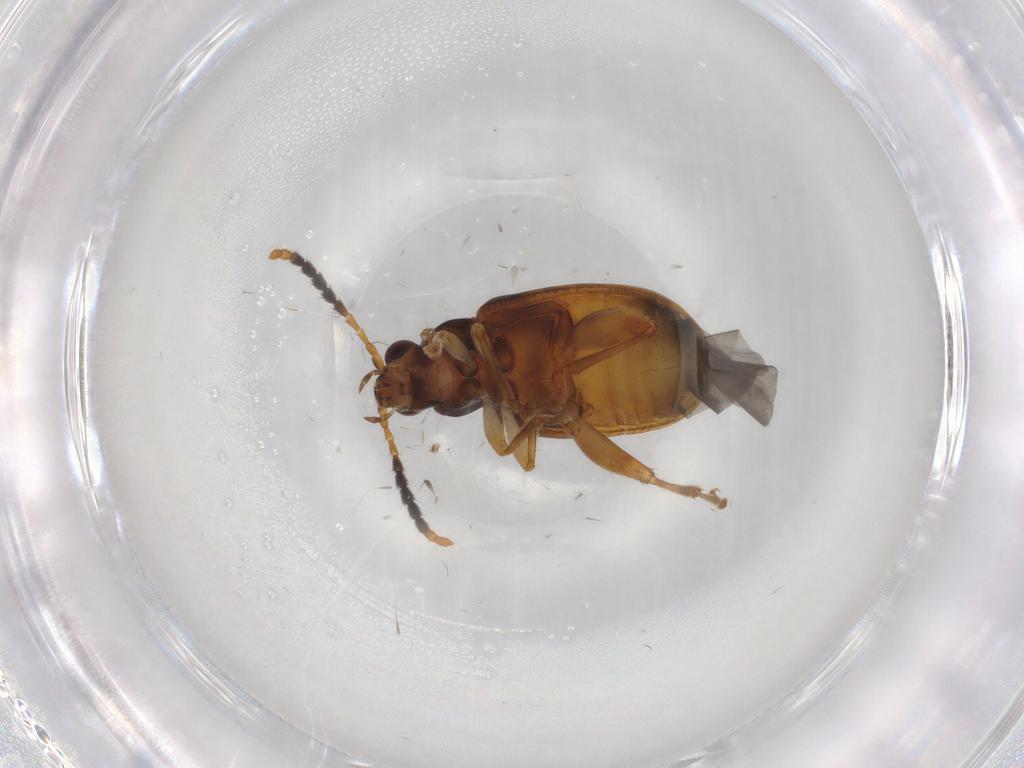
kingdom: Animalia
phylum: Arthropoda
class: Insecta
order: Coleoptera
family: Chrysomelidae
